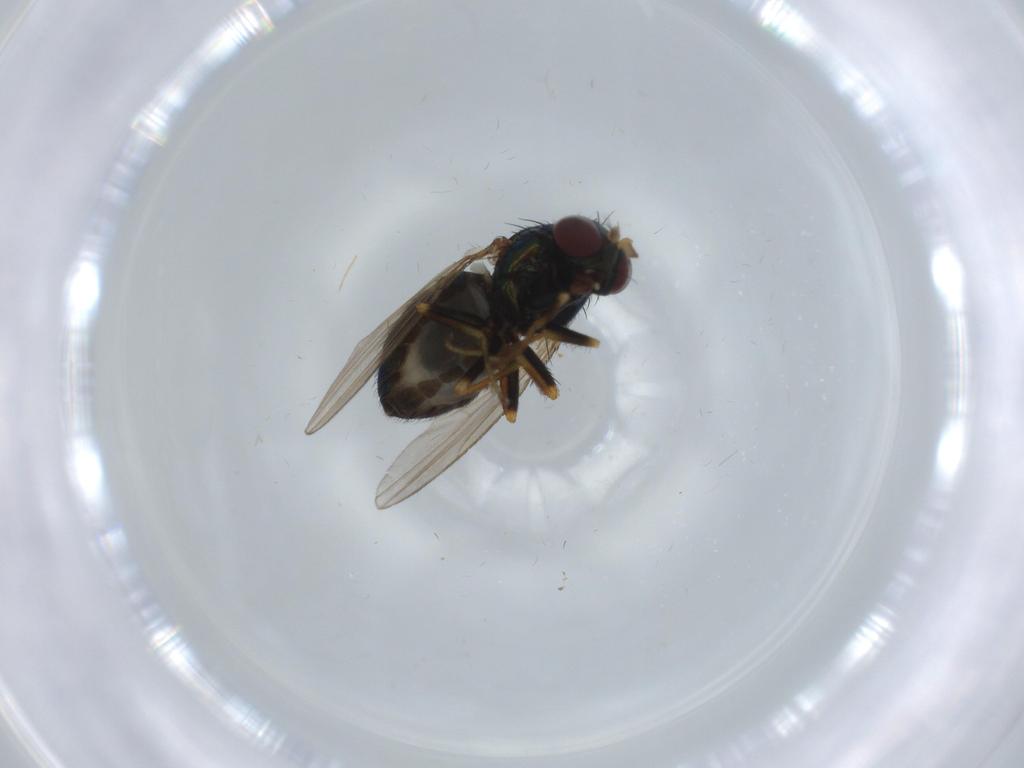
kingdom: Animalia
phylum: Arthropoda
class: Insecta
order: Diptera
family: Ephydridae
